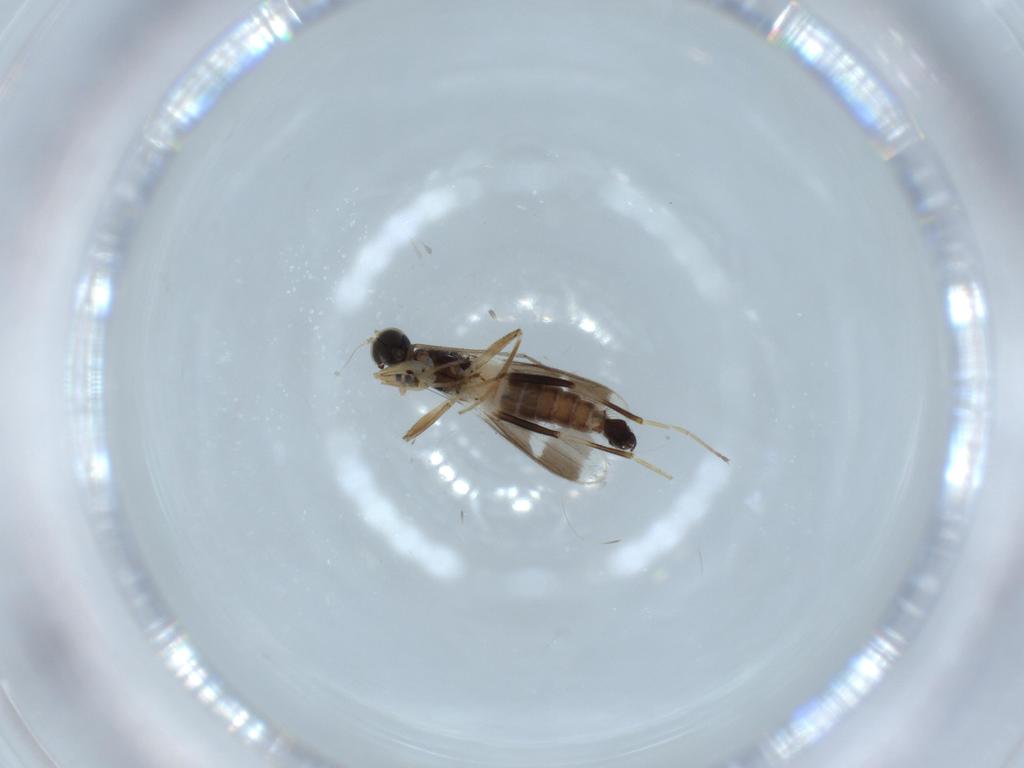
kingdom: Animalia
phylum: Arthropoda
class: Insecta
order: Diptera
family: Hybotidae
